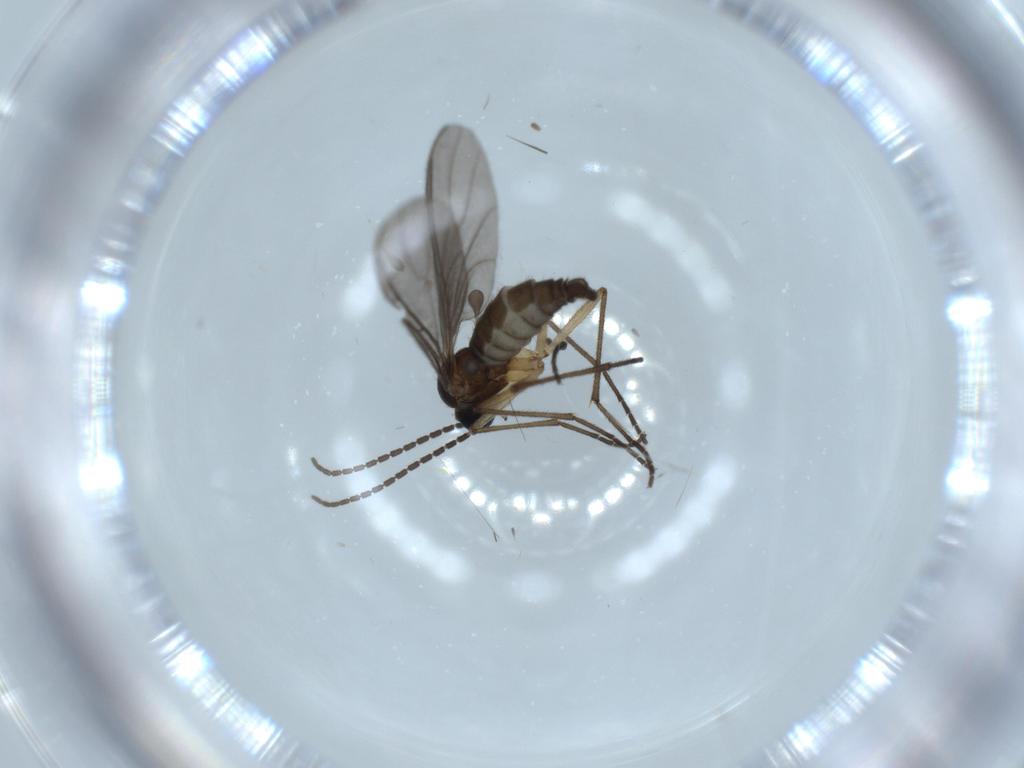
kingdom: Animalia
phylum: Arthropoda
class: Insecta
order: Diptera
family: Sciaridae
